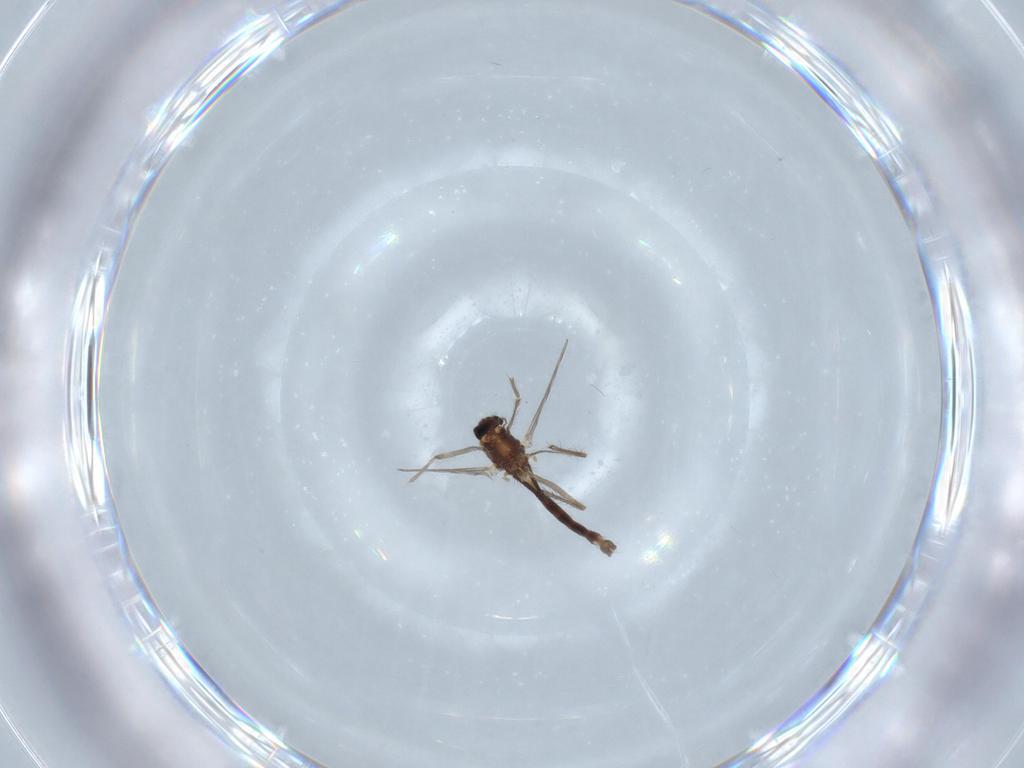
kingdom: Animalia
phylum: Arthropoda
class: Insecta
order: Diptera
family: Chironomidae
